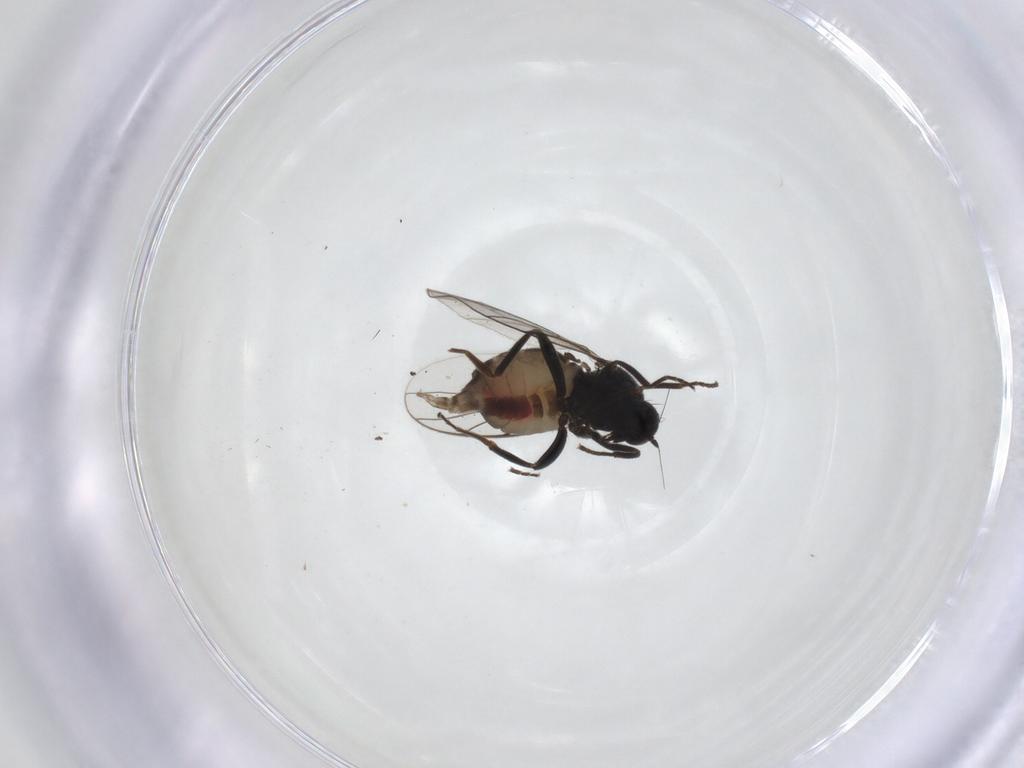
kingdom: Animalia
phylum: Arthropoda
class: Insecta
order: Diptera
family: Hybotidae
